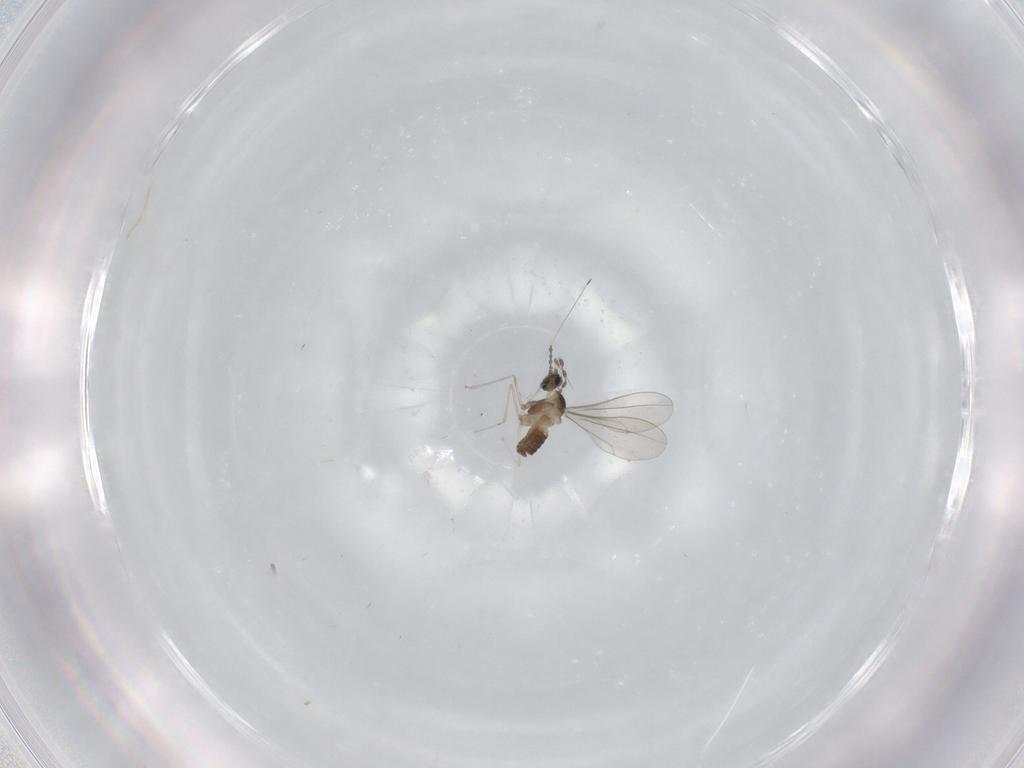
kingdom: Animalia
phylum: Arthropoda
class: Insecta
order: Diptera
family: Cecidomyiidae
